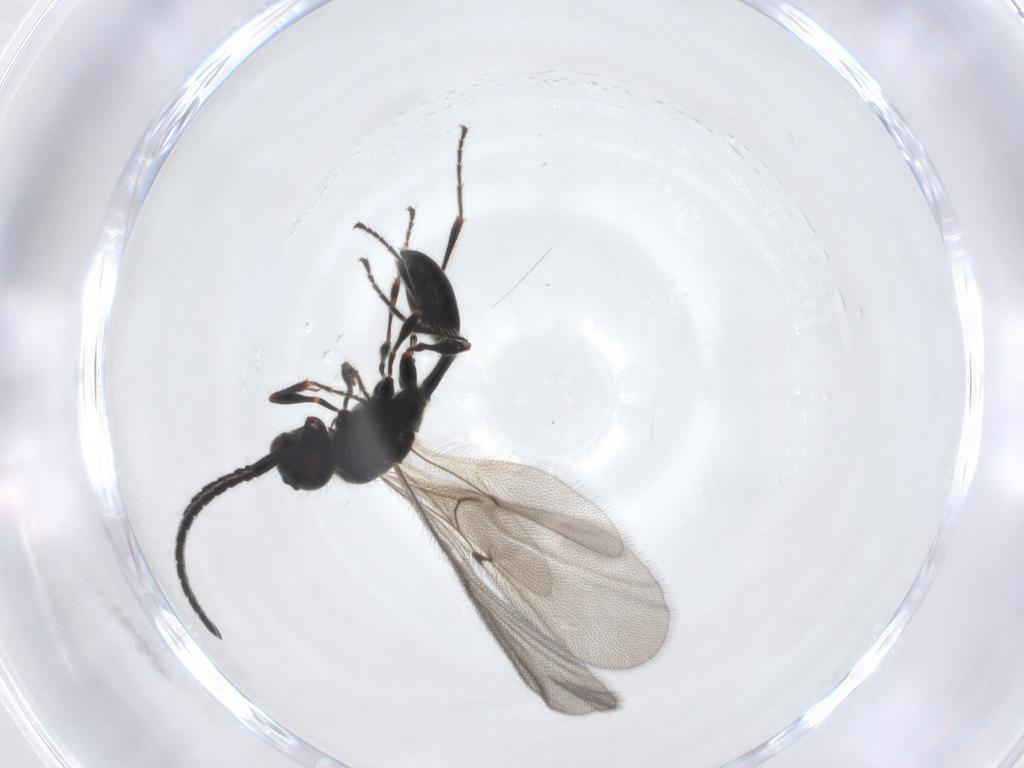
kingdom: Animalia
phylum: Arthropoda
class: Insecta
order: Hymenoptera
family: Diapriidae
